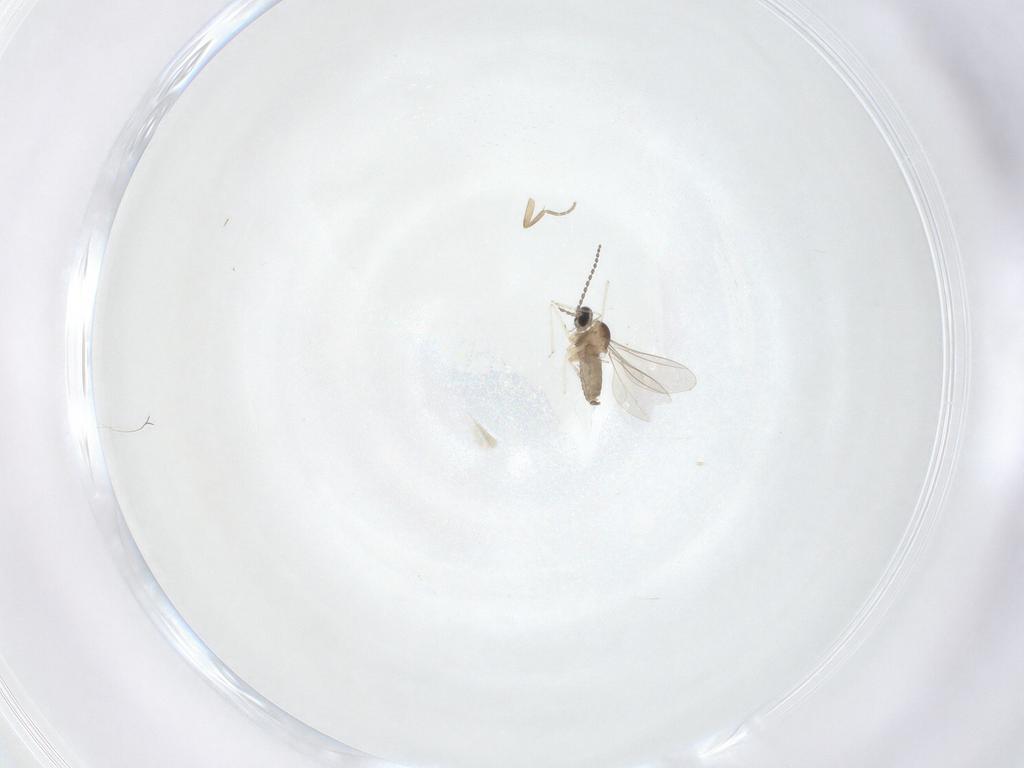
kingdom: Animalia
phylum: Arthropoda
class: Insecta
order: Diptera
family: Cecidomyiidae
